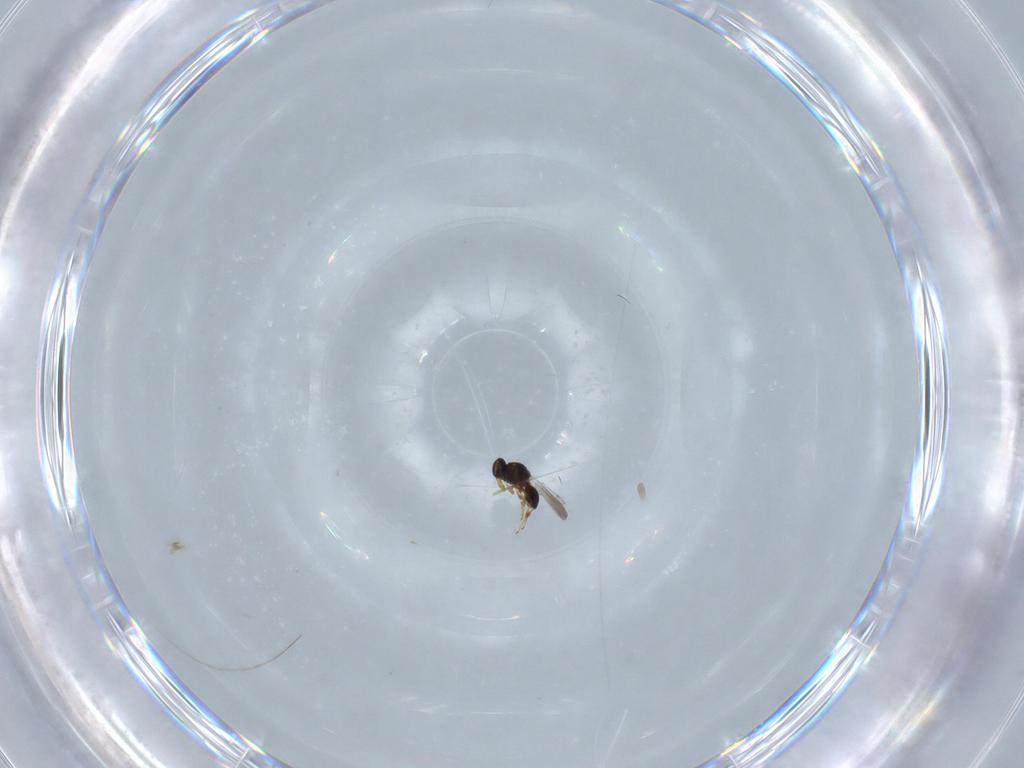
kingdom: Animalia
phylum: Arthropoda
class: Insecta
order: Hymenoptera
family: Platygastridae
